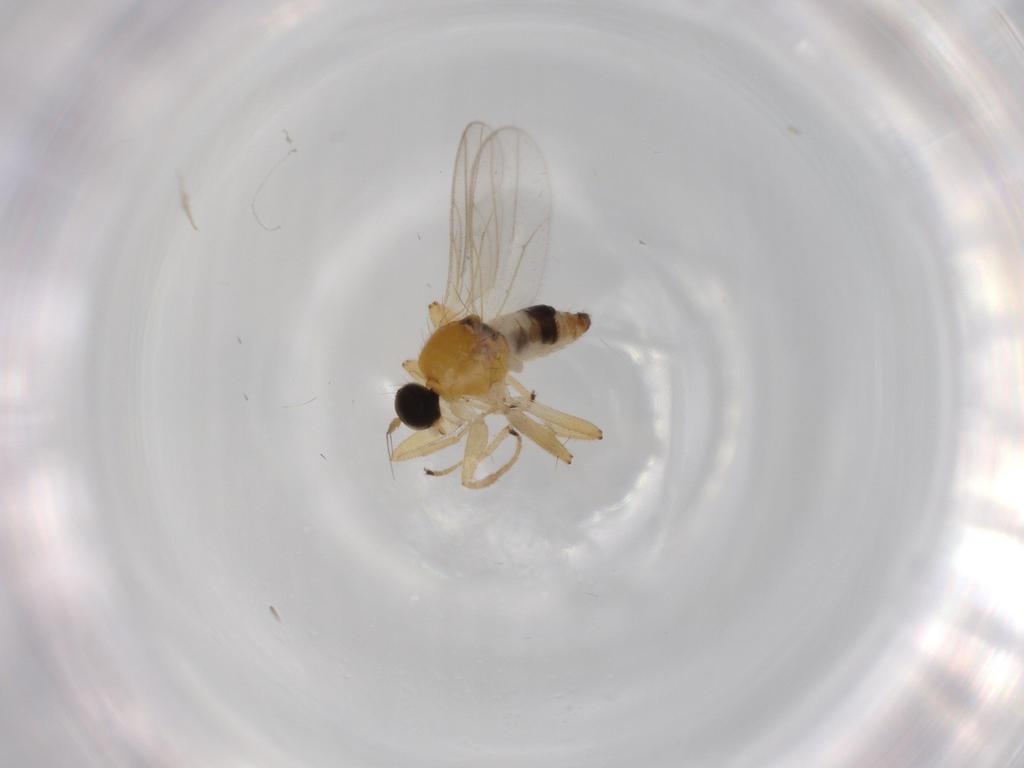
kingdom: Animalia
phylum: Arthropoda
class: Insecta
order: Diptera
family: Hybotidae
